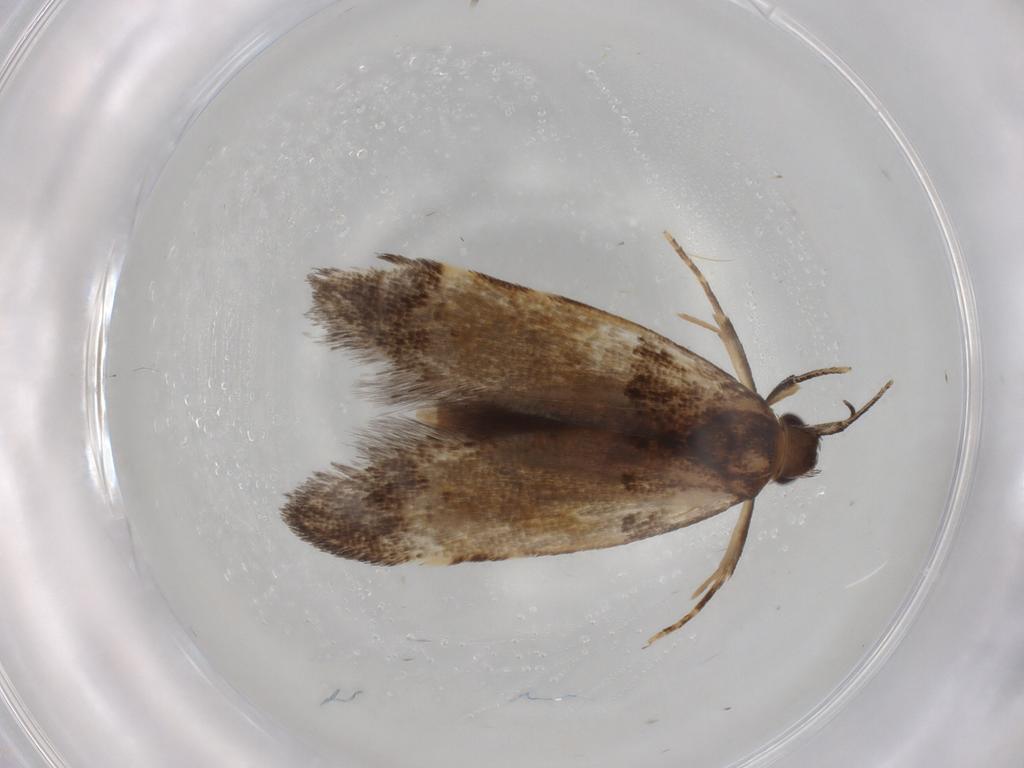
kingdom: Animalia
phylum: Arthropoda
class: Insecta
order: Lepidoptera
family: Cosmopterigidae
